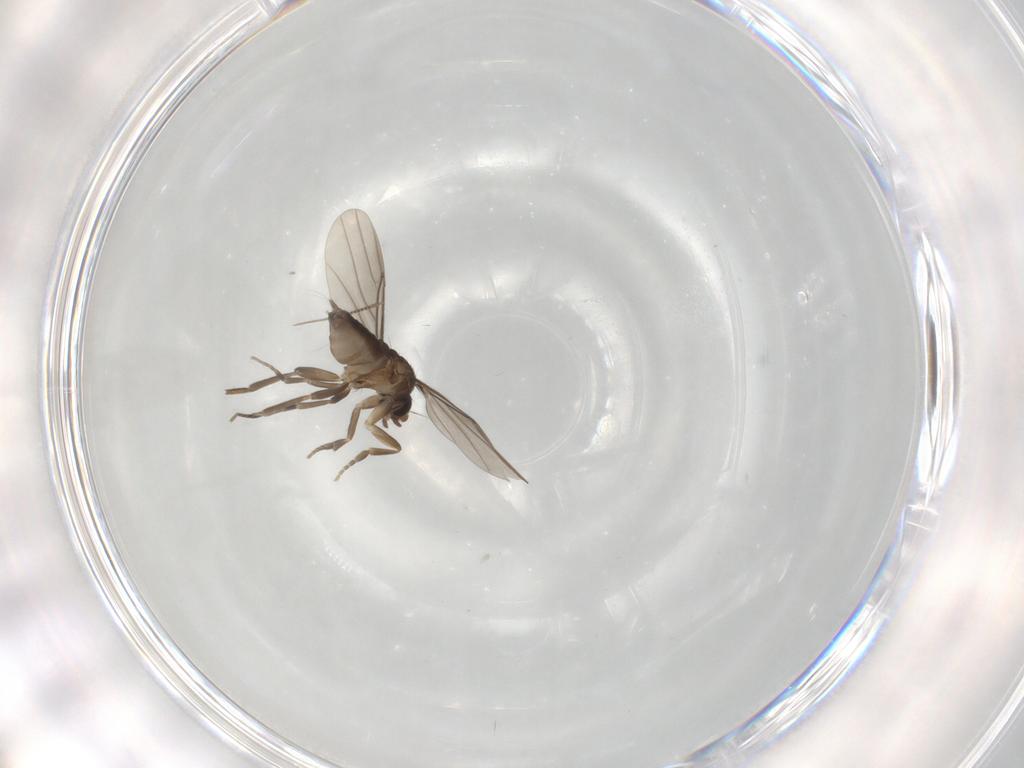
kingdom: Animalia
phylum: Arthropoda
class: Insecta
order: Diptera
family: Phoridae
